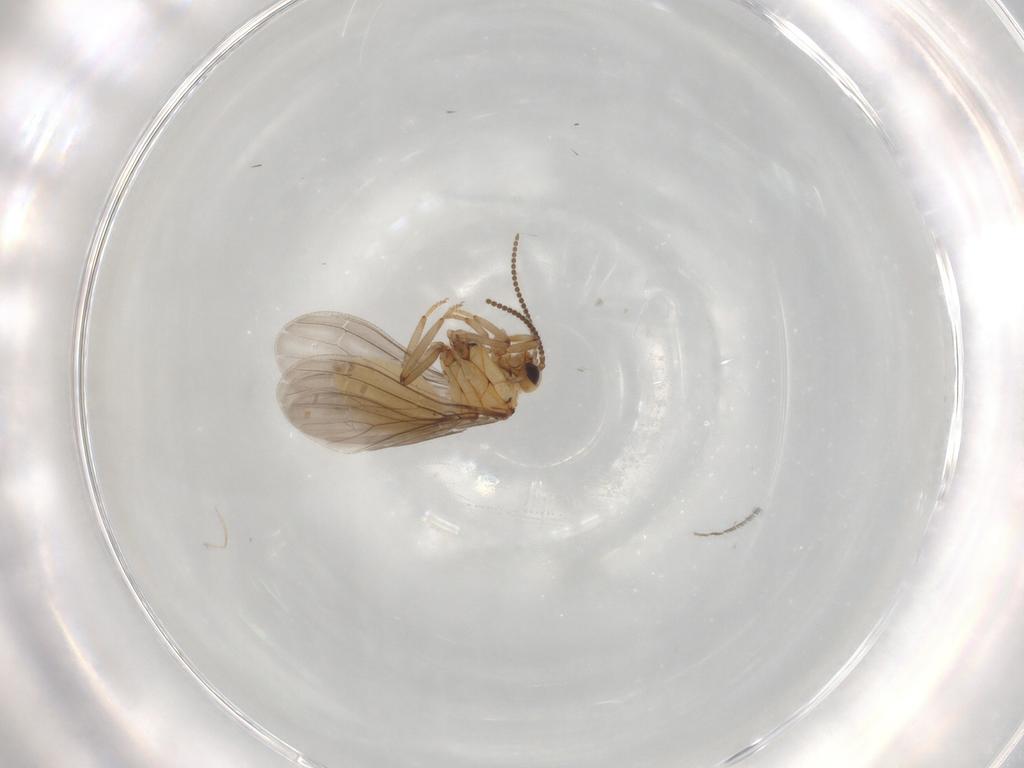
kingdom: Animalia
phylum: Arthropoda
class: Insecta
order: Neuroptera
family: Coniopterygidae
